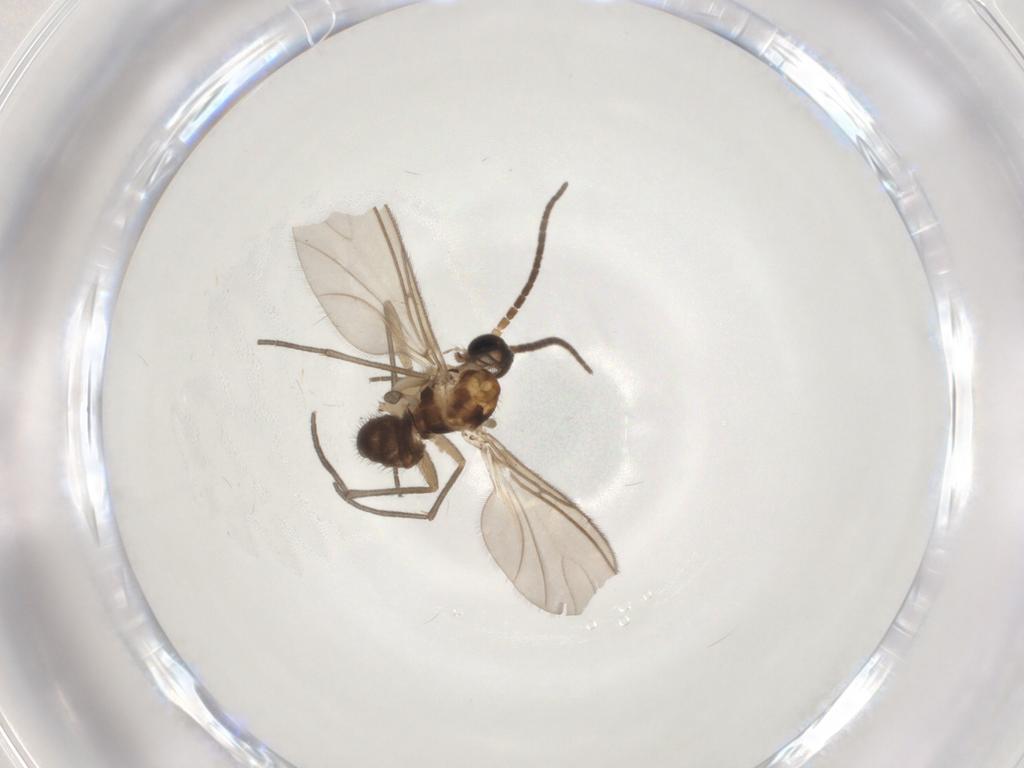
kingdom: Animalia
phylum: Arthropoda
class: Insecta
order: Diptera
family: Sciaridae
